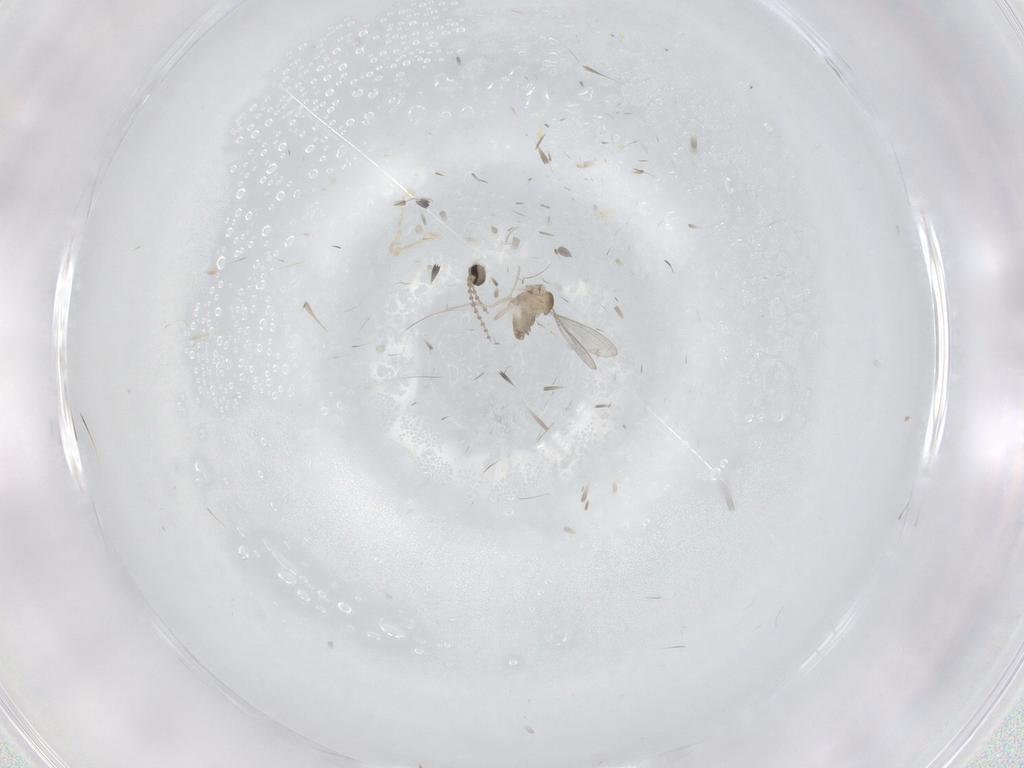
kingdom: Animalia
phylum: Arthropoda
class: Insecta
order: Diptera
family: Cecidomyiidae
